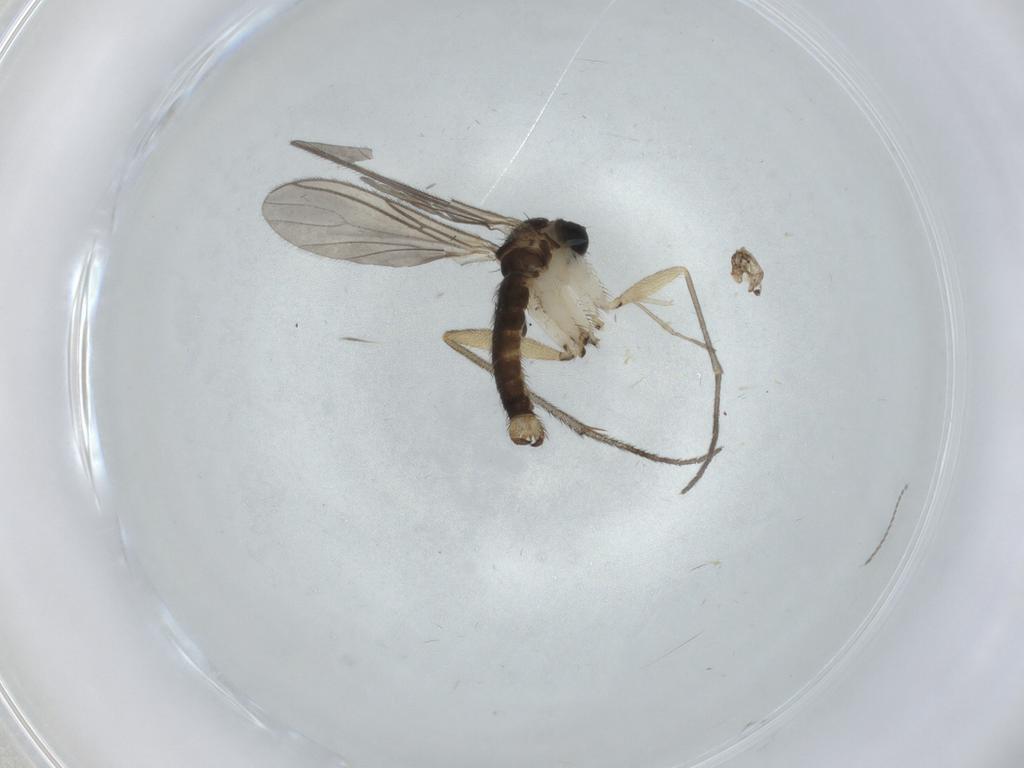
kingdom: Animalia
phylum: Arthropoda
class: Insecta
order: Diptera
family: Sciaridae
